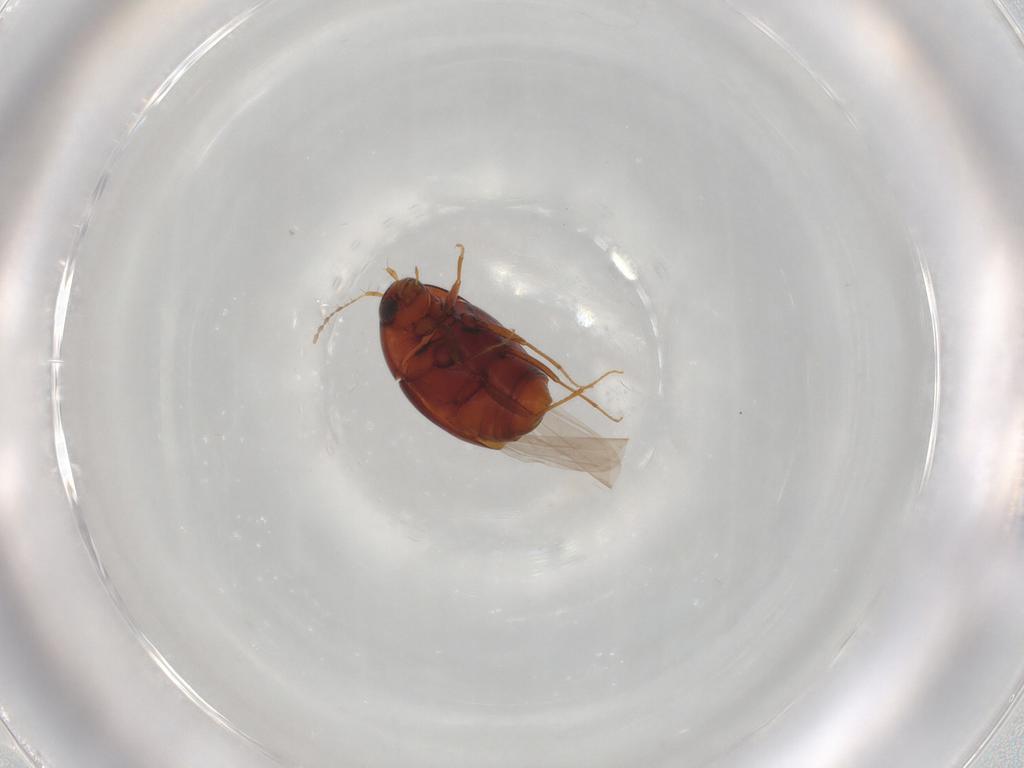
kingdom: Animalia
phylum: Arthropoda
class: Insecta
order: Coleoptera
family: Staphylinidae
